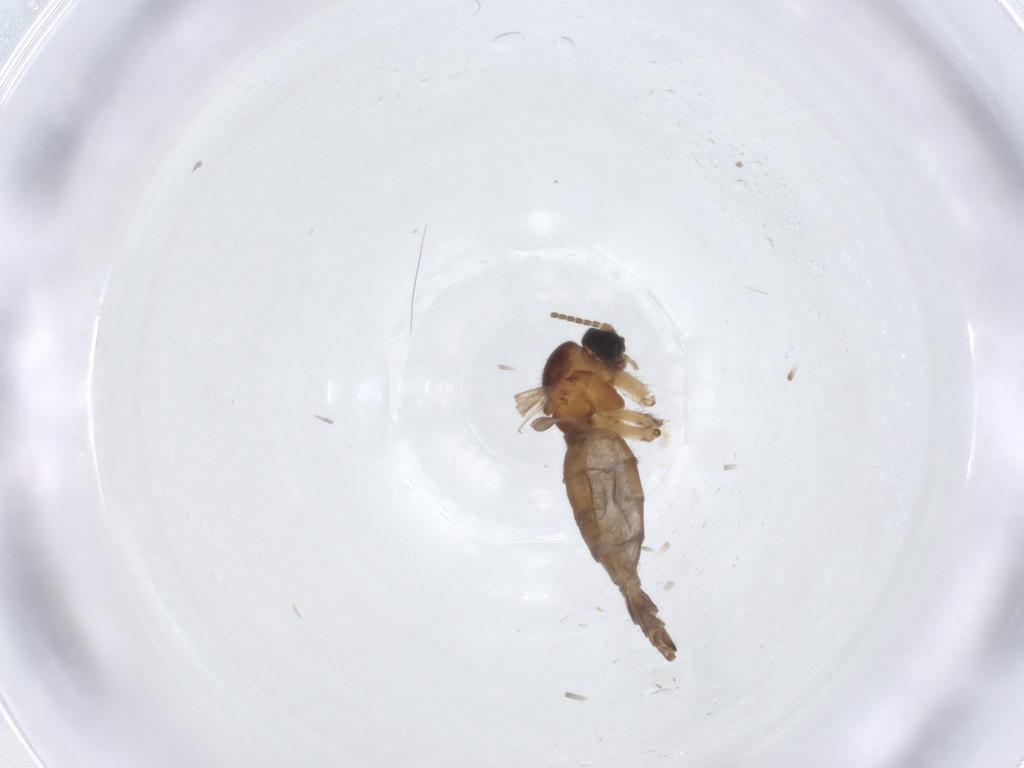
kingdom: Animalia
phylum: Arthropoda
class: Insecta
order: Diptera
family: Sciaridae
